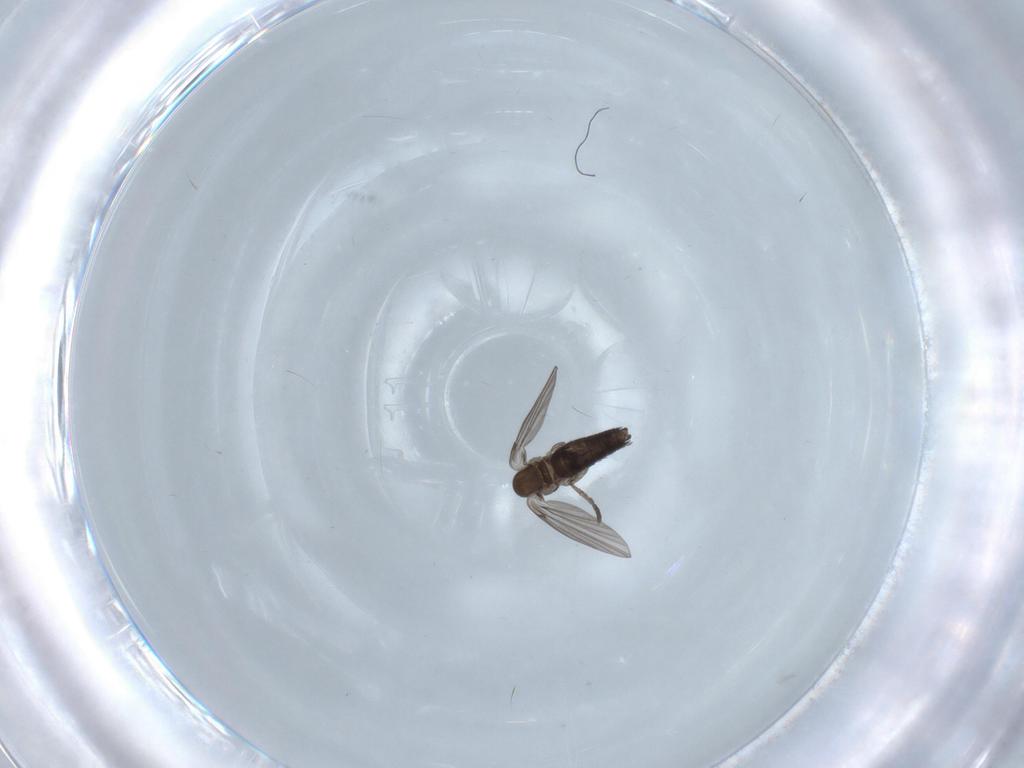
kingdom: Animalia
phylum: Arthropoda
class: Insecta
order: Diptera
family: Cecidomyiidae
